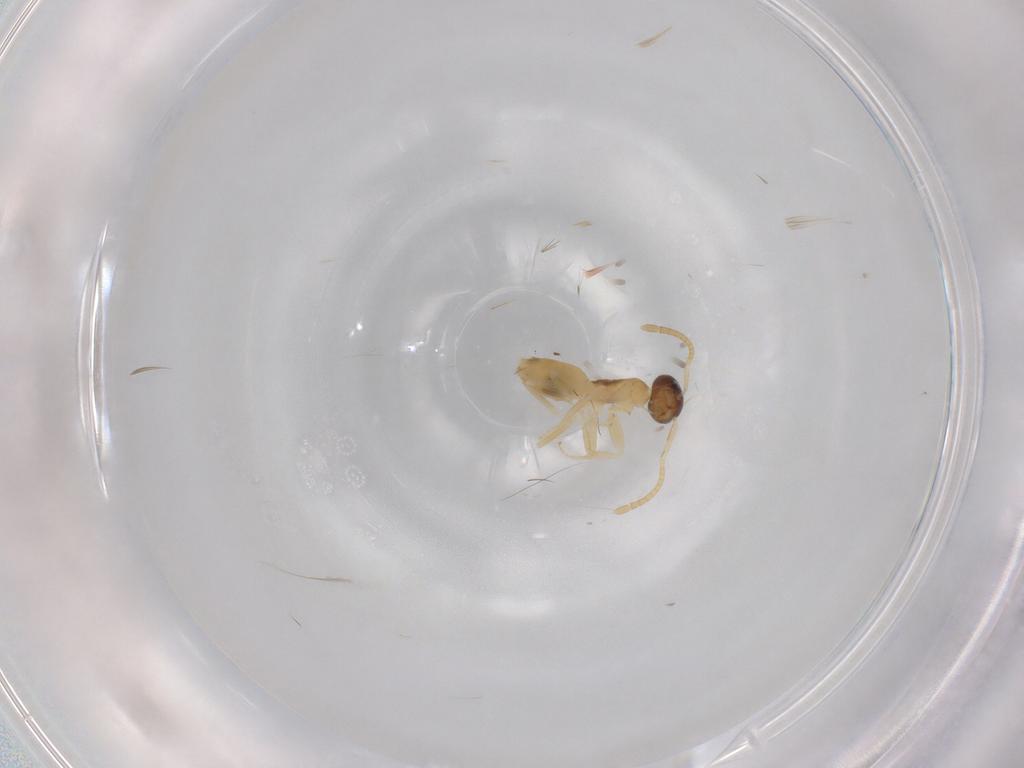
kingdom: Animalia
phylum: Arthropoda
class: Insecta
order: Hymenoptera
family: Formicidae
